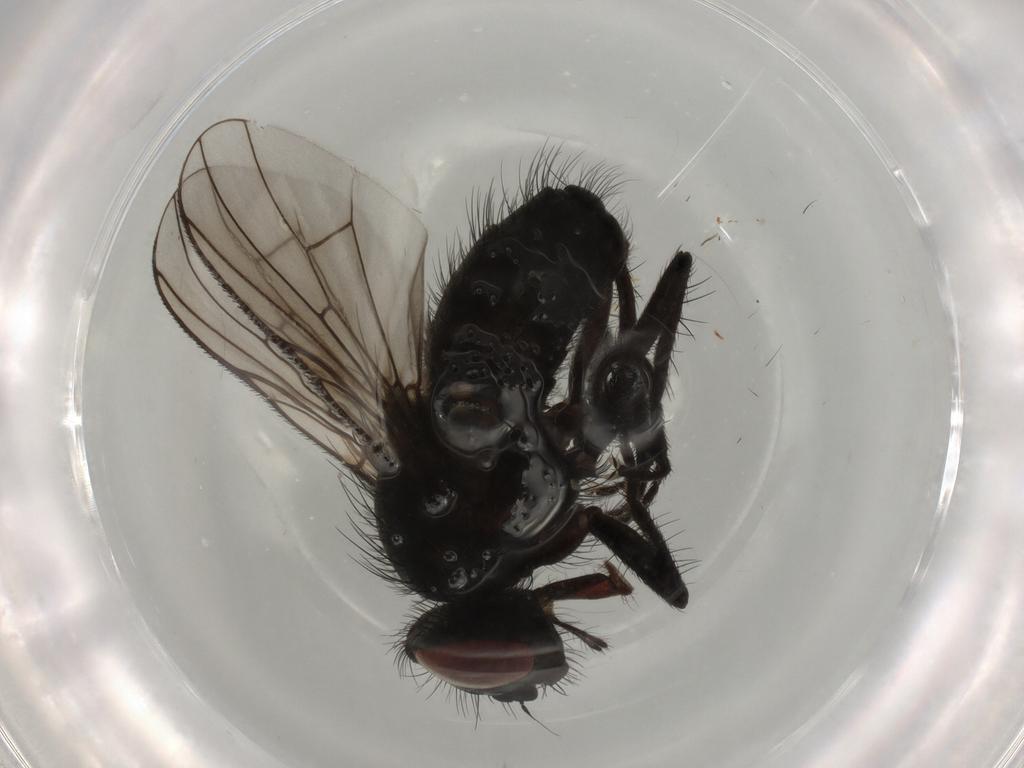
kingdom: Animalia
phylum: Arthropoda
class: Insecta
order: Diptera
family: Muscidae
